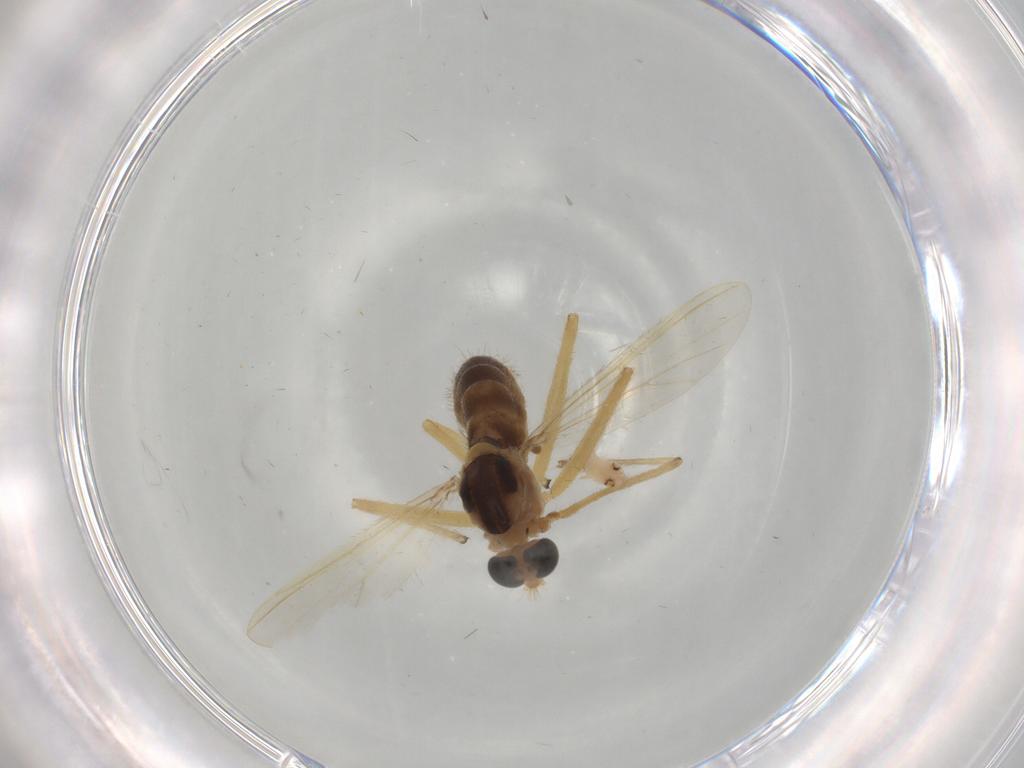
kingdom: Animalia
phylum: Arthropoda
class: Insecta
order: Diptera
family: Chironomidae
